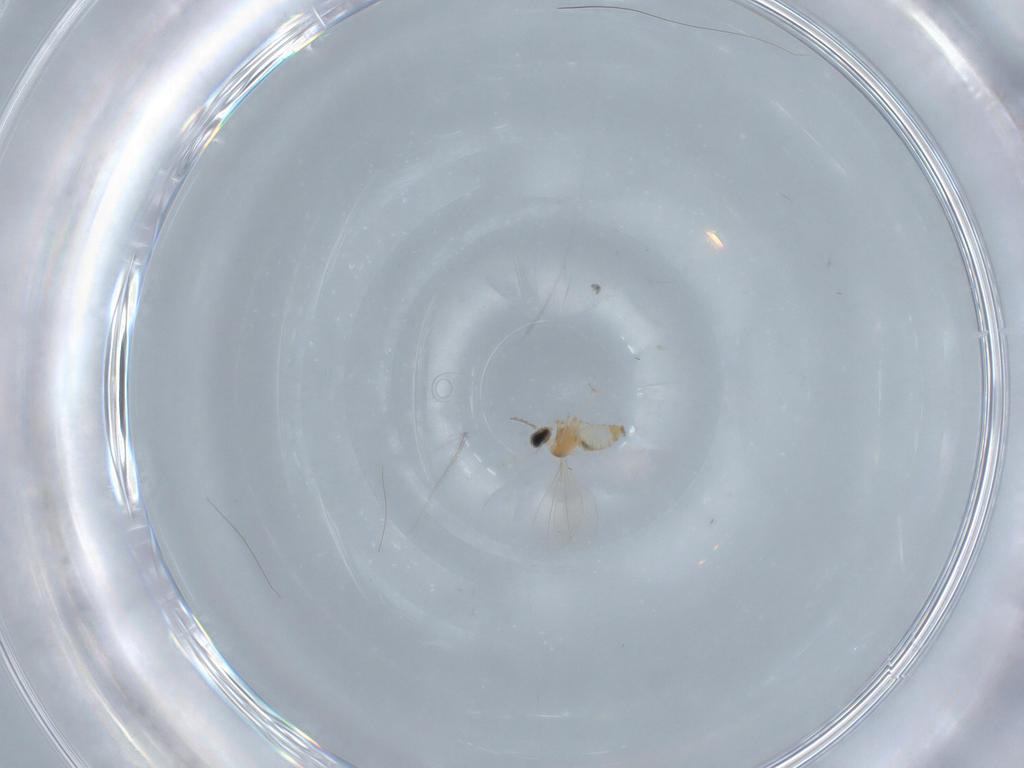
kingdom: Animalia
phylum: Arthropoda
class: Insecta
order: Diptera
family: Cecidomyiidae
